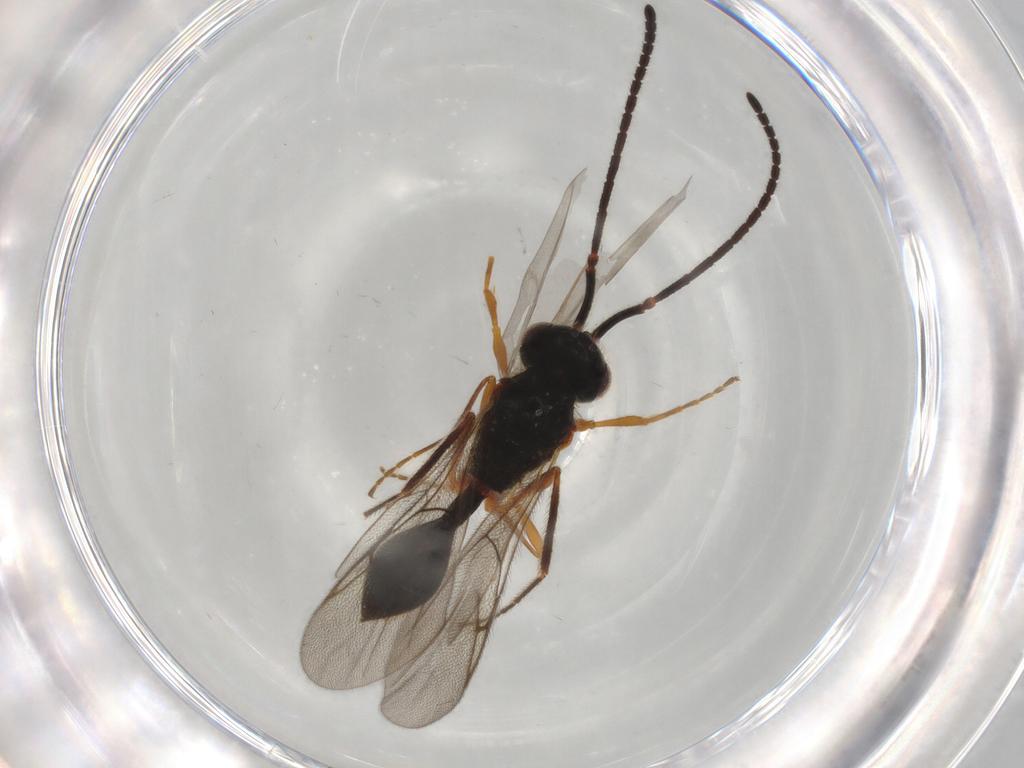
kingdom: Animalia
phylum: Arthropoda
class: Insecta
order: Hymenoptera
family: Diapriidae
